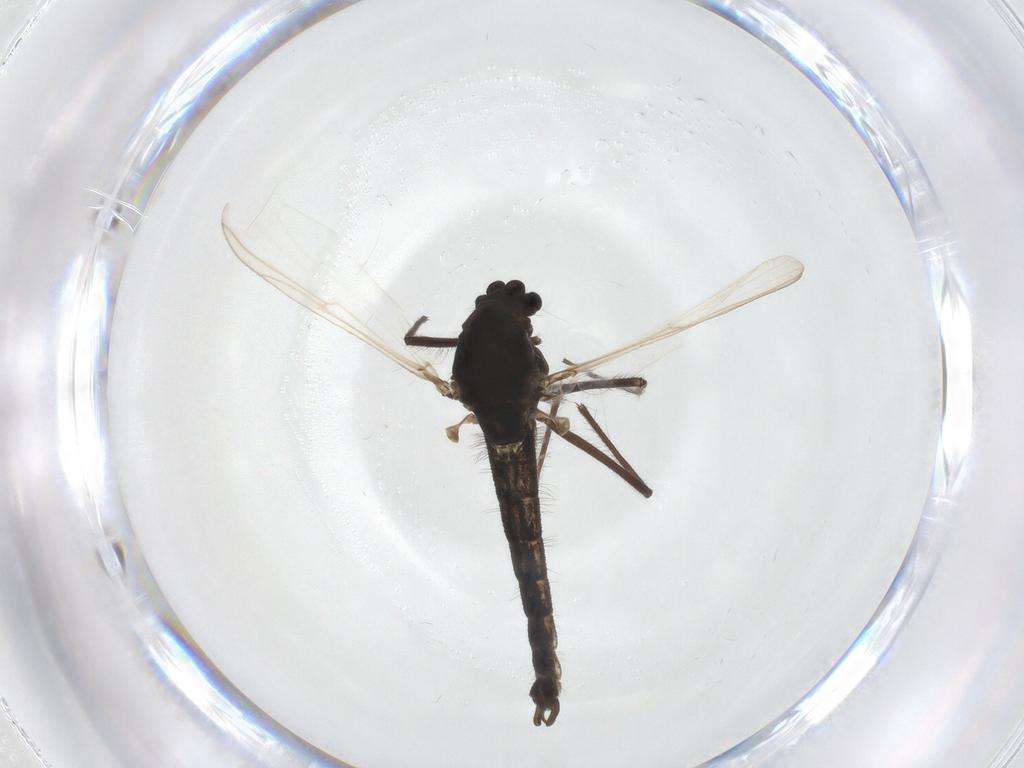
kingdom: Animalia
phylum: Arthropoda
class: Insecta
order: Diptera
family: Chironomidae
